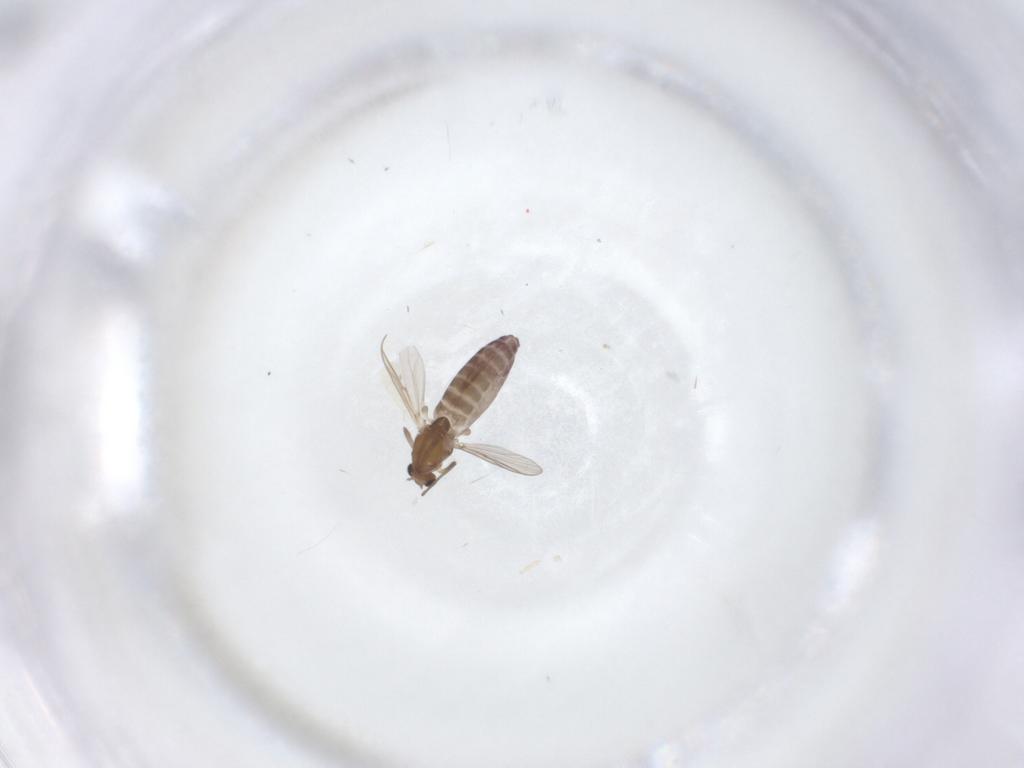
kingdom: Animalia
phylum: Arthropoda
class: Insecta
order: Diptera
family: Chironomidae
